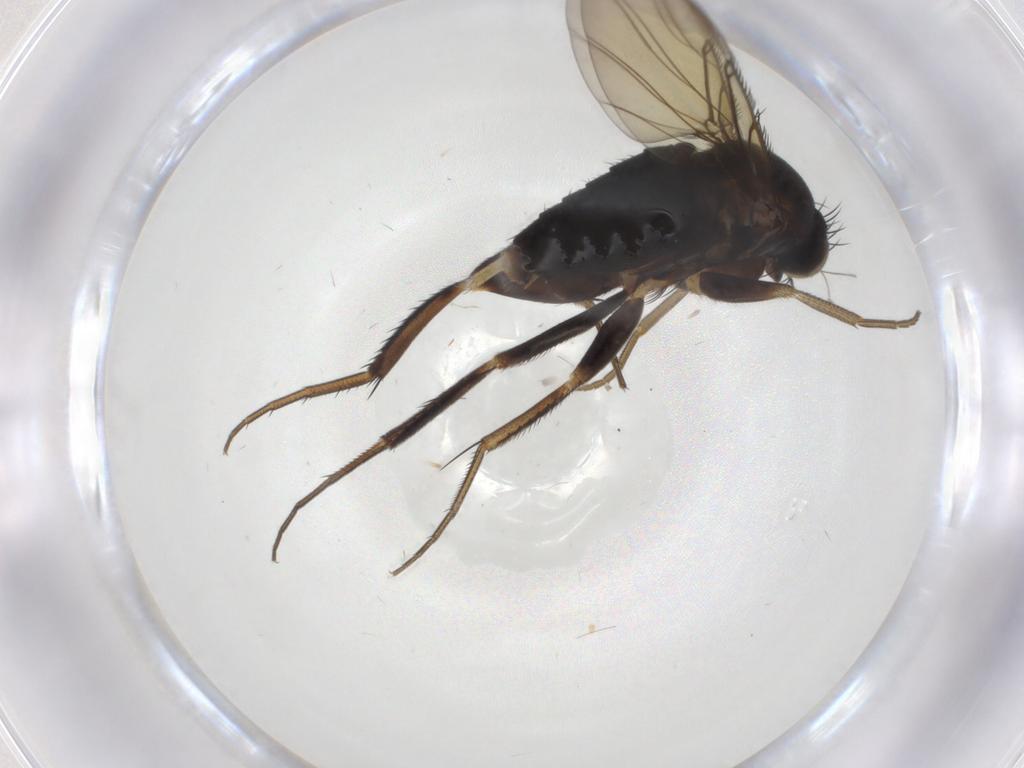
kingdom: Animalia
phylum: Arthropoda
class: Insecta
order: Diptera
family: Phoridae
